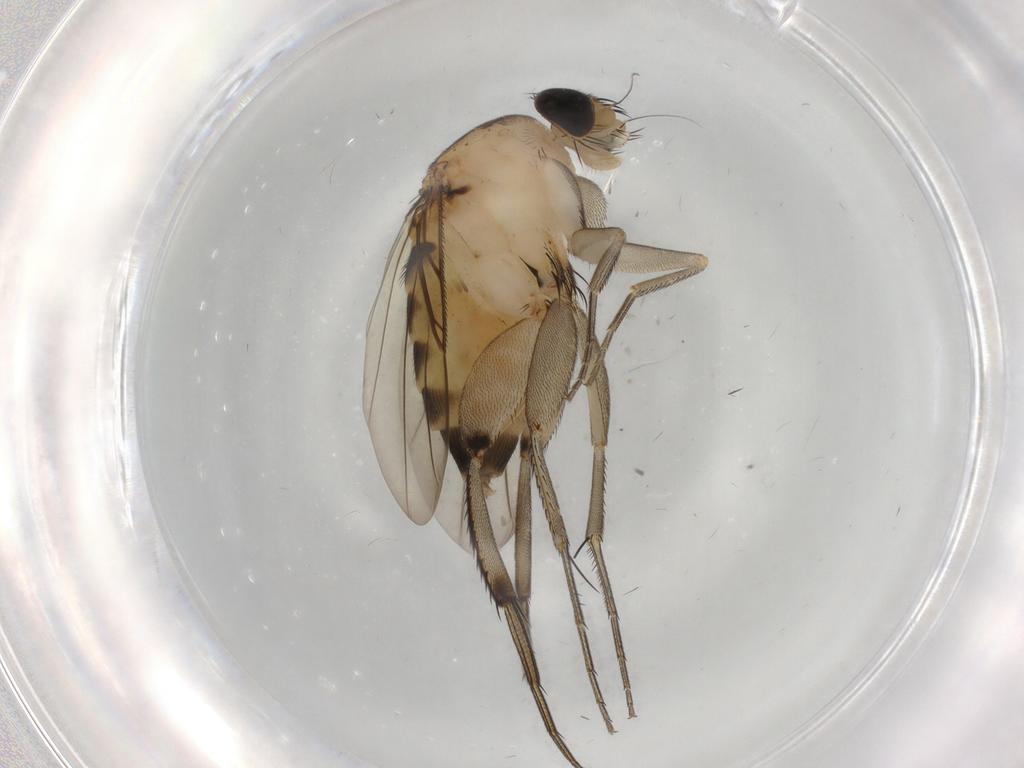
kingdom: Animalia
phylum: Arthropoda
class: Insecta
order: Diptera
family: Phoridae
